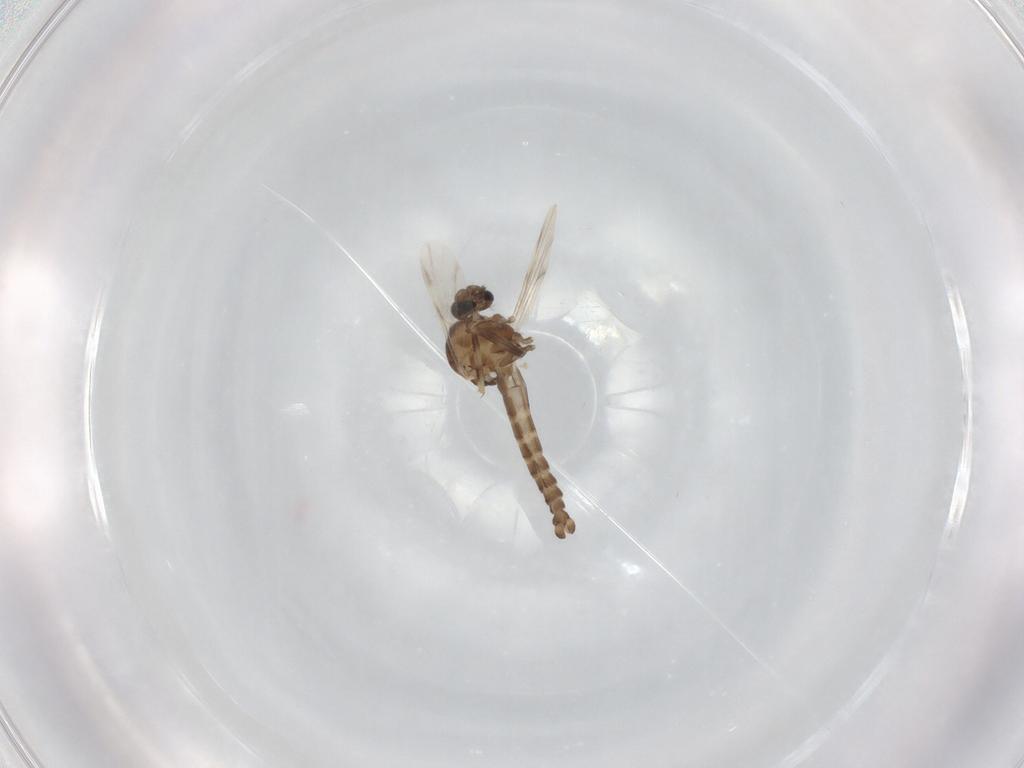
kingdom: Animalia
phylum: Arthropoda
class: Insecta
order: Diptera
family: Ceratopogonidae
